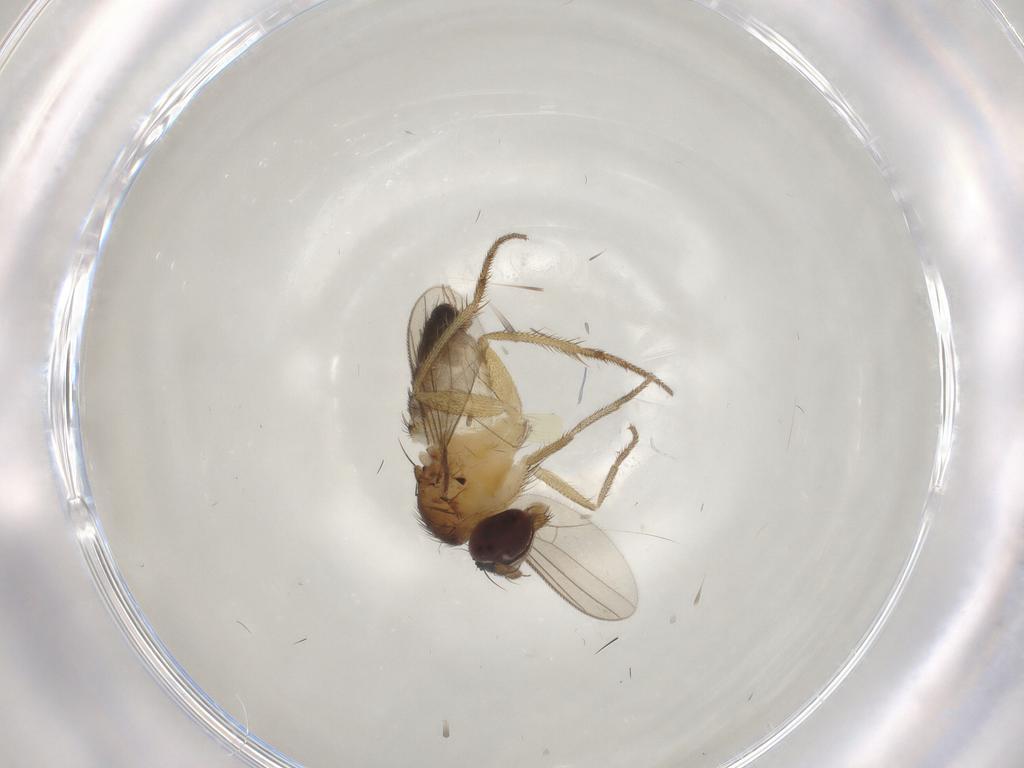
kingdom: Animalia
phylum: Arthropoda
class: Insecta
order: Diptera
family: Dolichopodidae
